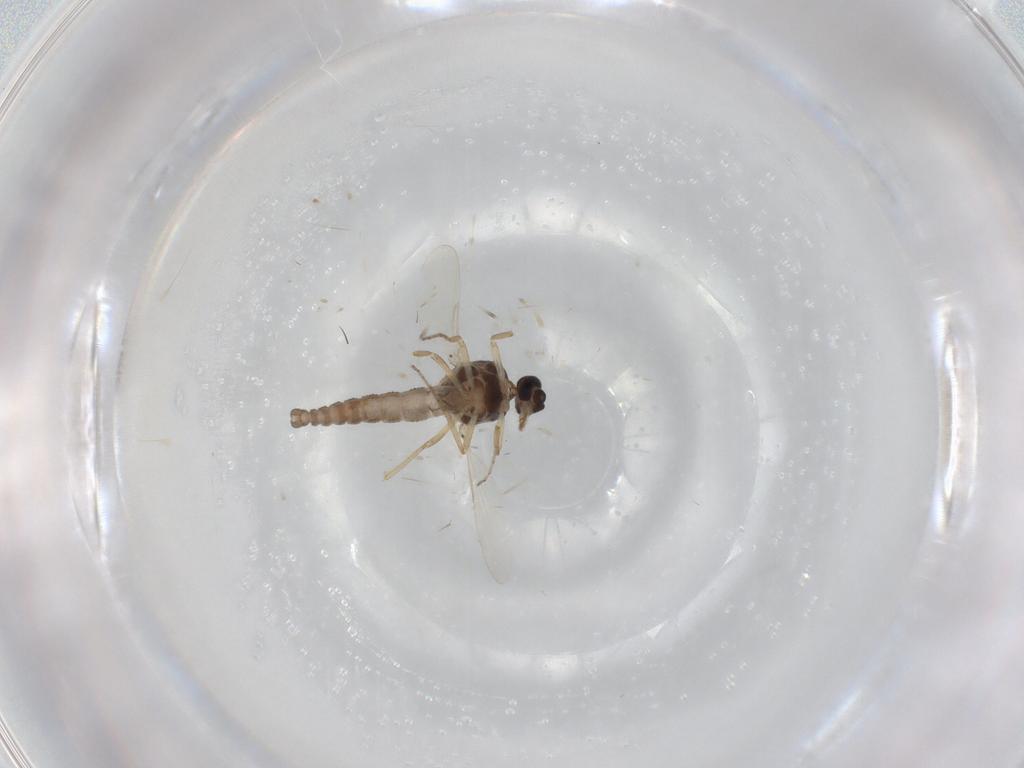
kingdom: Animalia
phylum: Arthropoda
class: Insecta
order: Diptera
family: Ceratopogonidae
